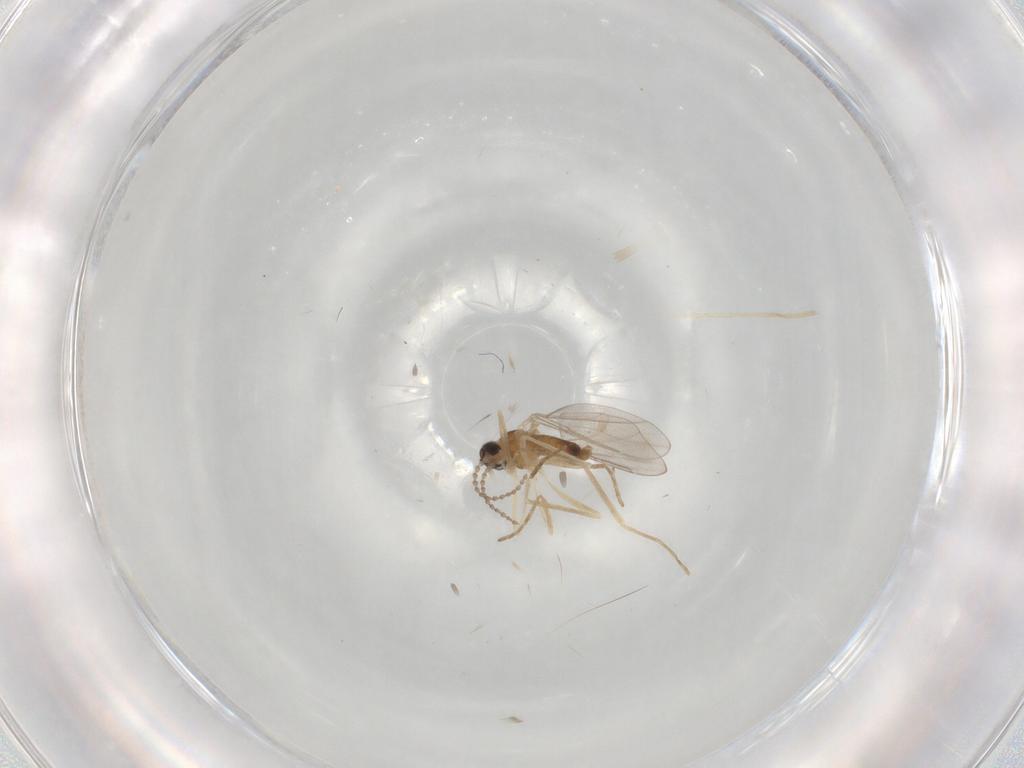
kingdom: Animalia
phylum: Arthropoda
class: Insecta
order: Diptera
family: Cecidomyiidae
